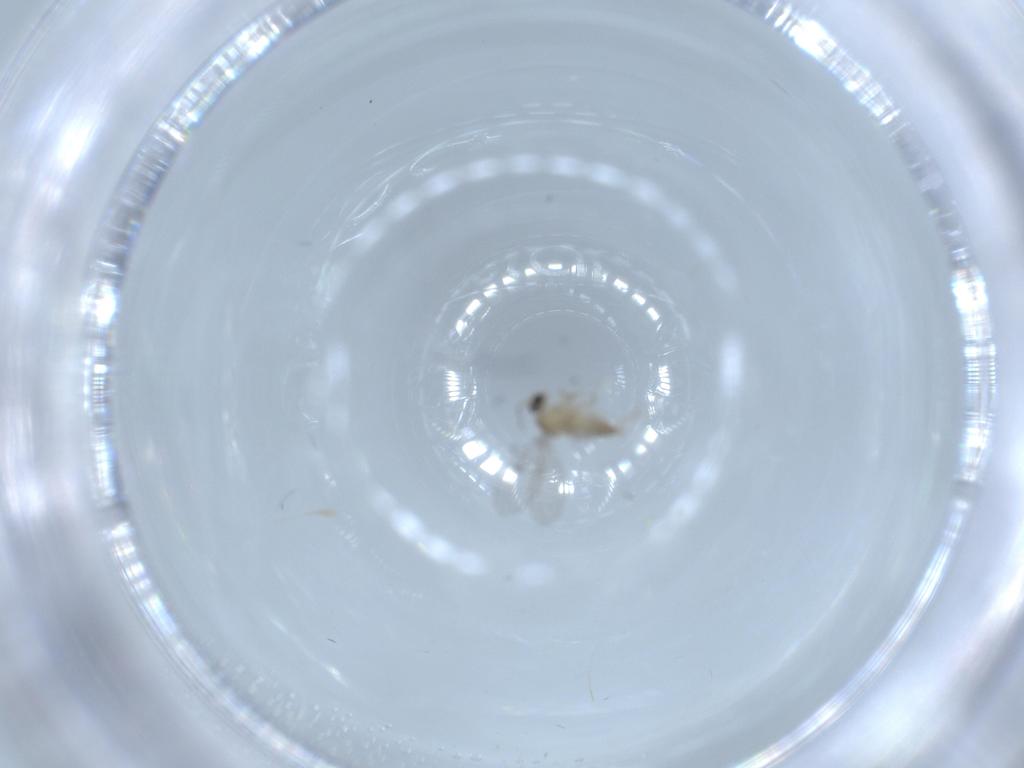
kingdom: Animalia
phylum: Arthropoda
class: Insecta
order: Diptera
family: Cecidomyiidae
